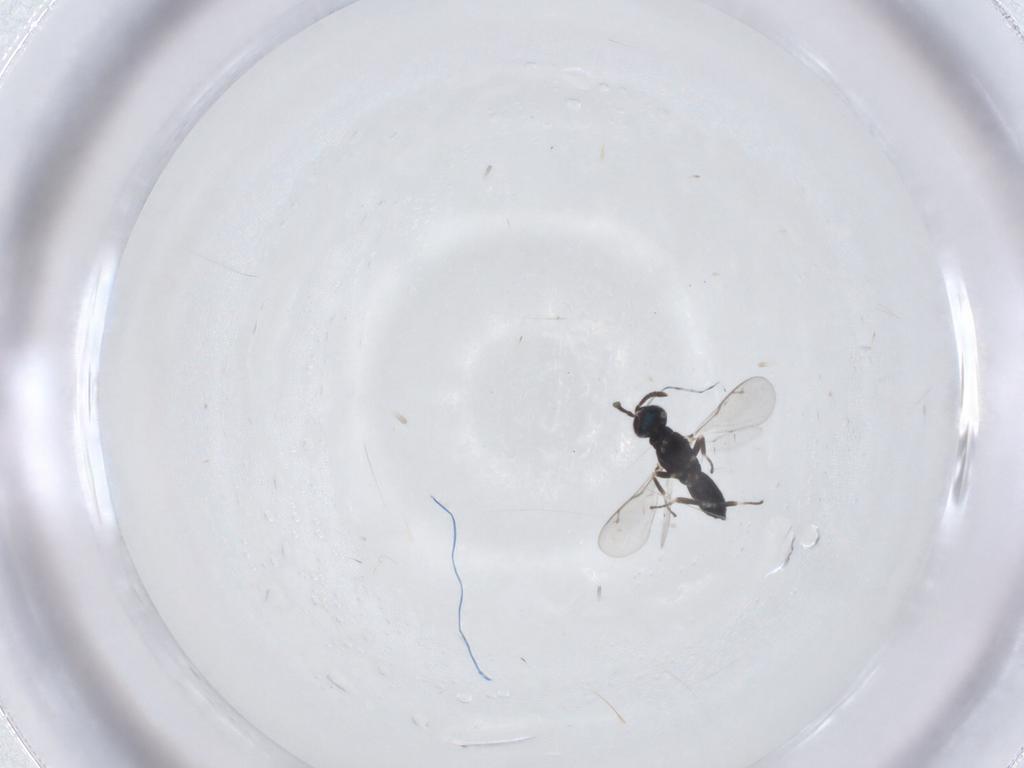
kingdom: Animalia
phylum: Arthropoda
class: Insecta
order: Hymenoptera
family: Eupelmidae
